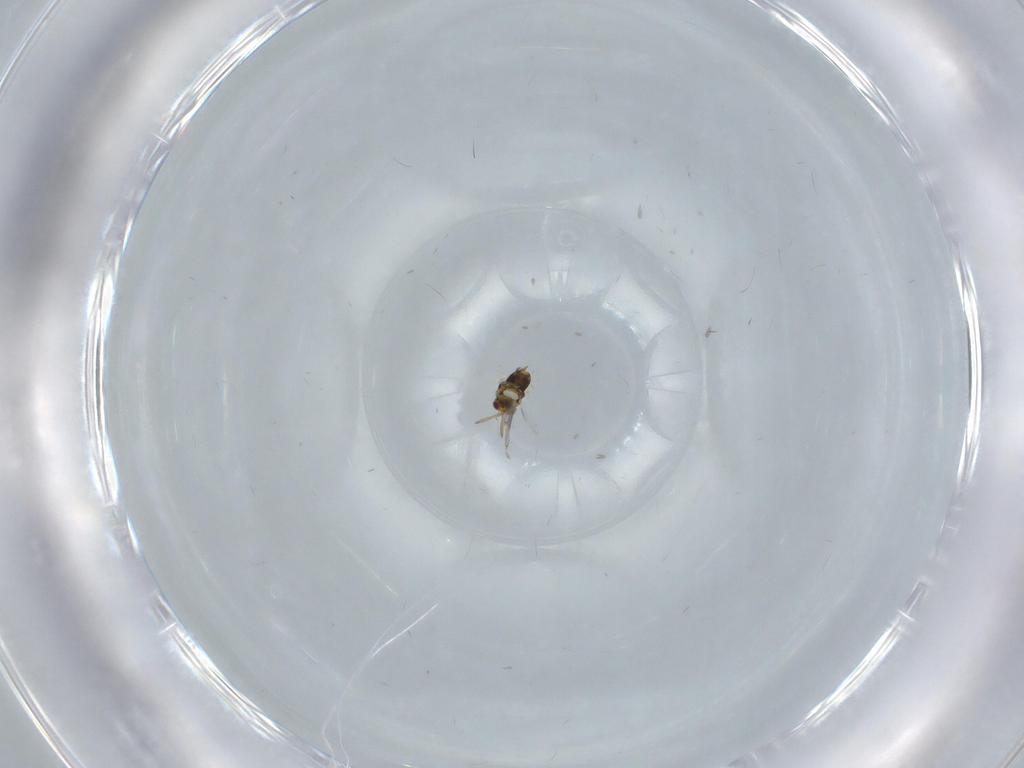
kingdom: Animalia
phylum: Arthropoda
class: Insecta
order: Hymenoptera
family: Aphelinidae
